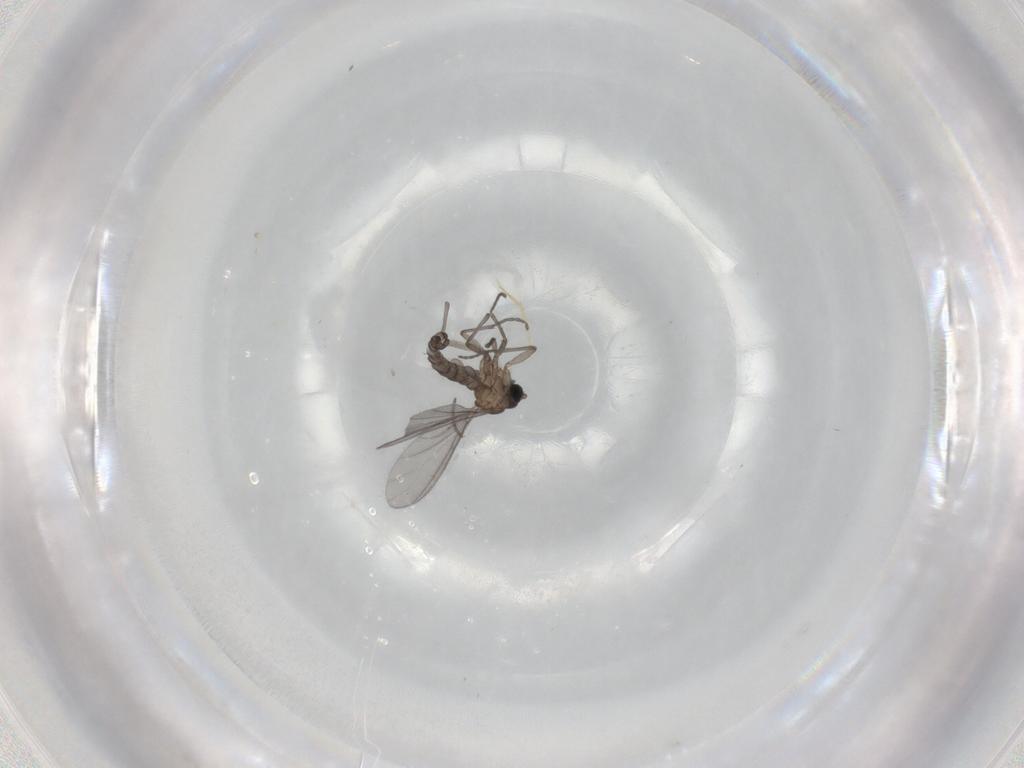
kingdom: Animalia
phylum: Arthropoda
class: Insecta
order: Diptera
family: Sciaridae
